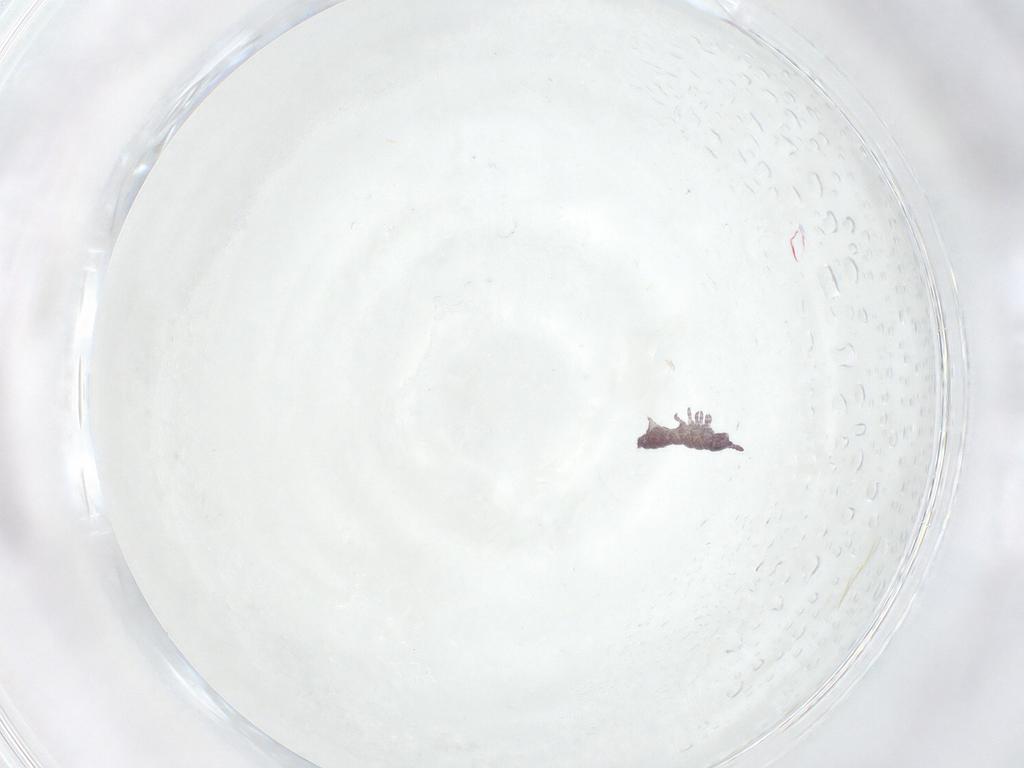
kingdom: Animalia
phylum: Arthropoda
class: Collembola
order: Poduromorpha
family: Hypogastruridae
